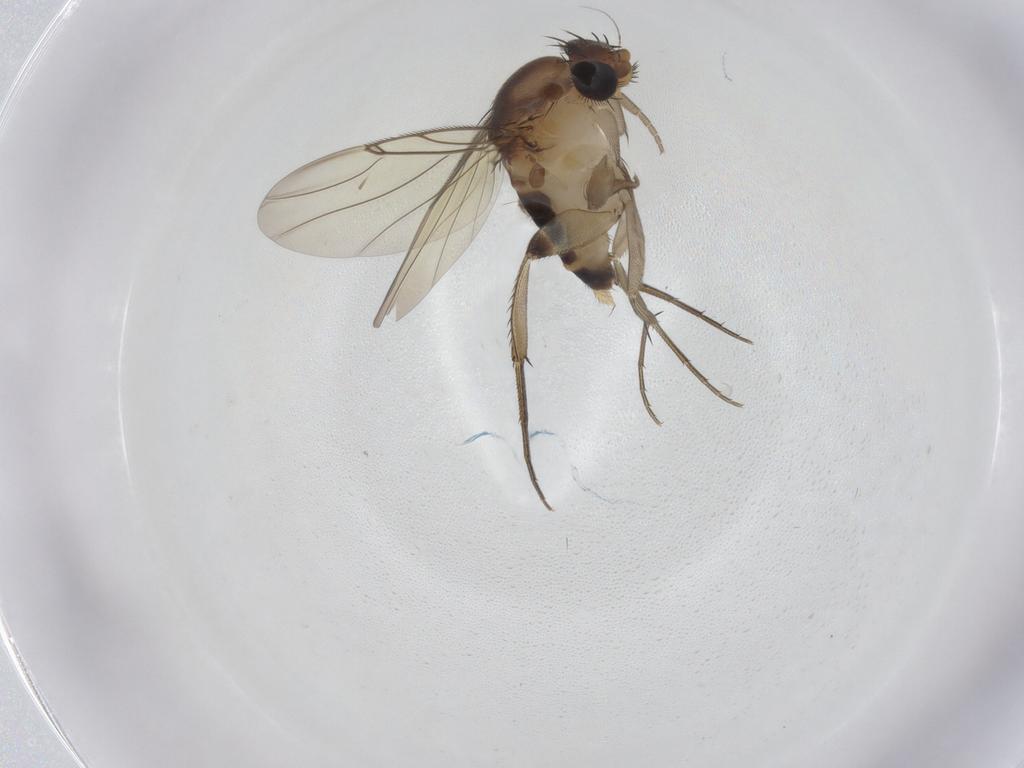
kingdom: Animalia
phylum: Arthropoda
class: Insecta
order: Diptera
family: Phoridae
